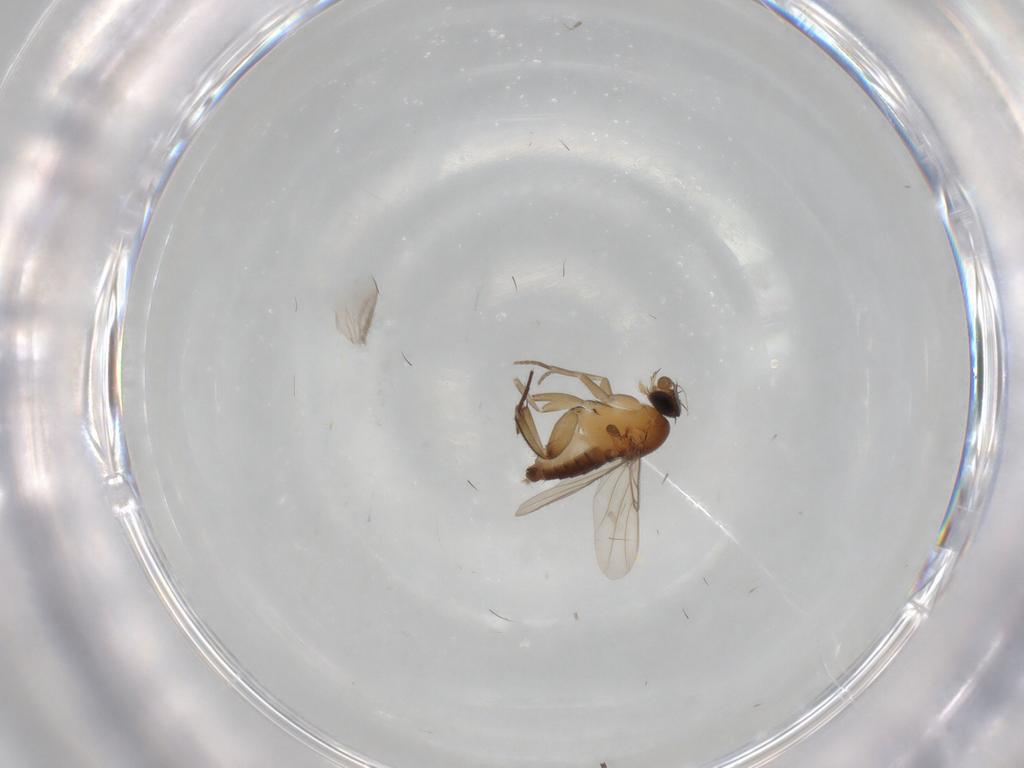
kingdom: Animalia
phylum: Arthropoda
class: Insecta
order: Diptera
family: Phoridae
